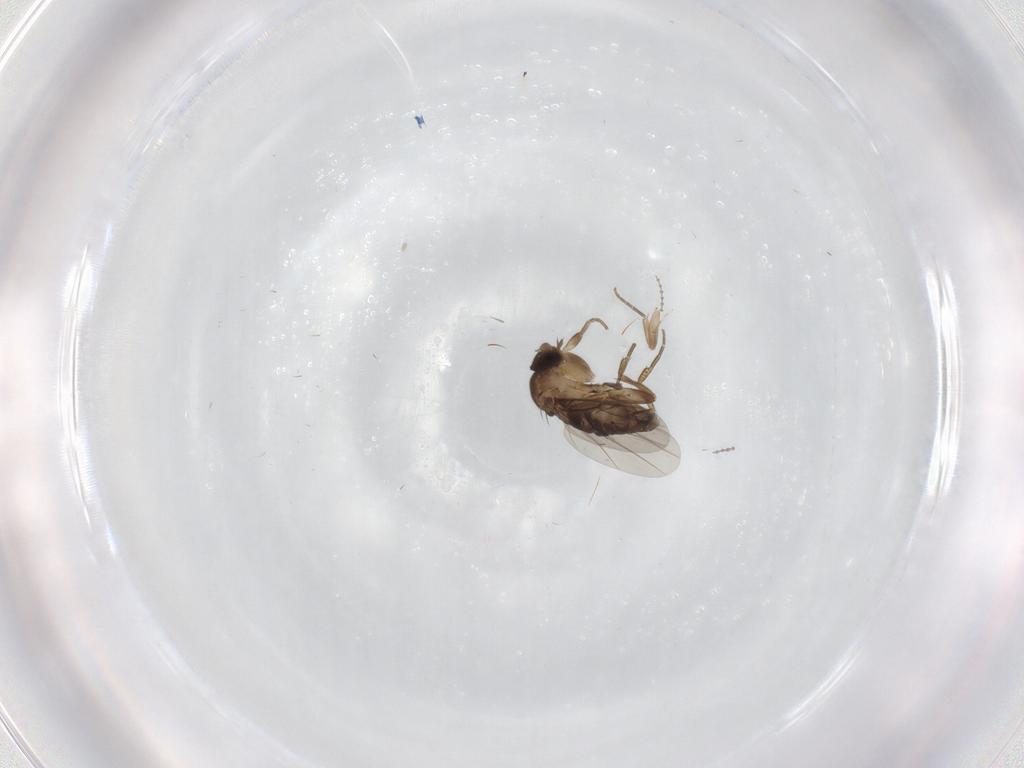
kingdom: Animalia
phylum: Arthropoda
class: Insecta
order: Diptera
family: Phoridae
